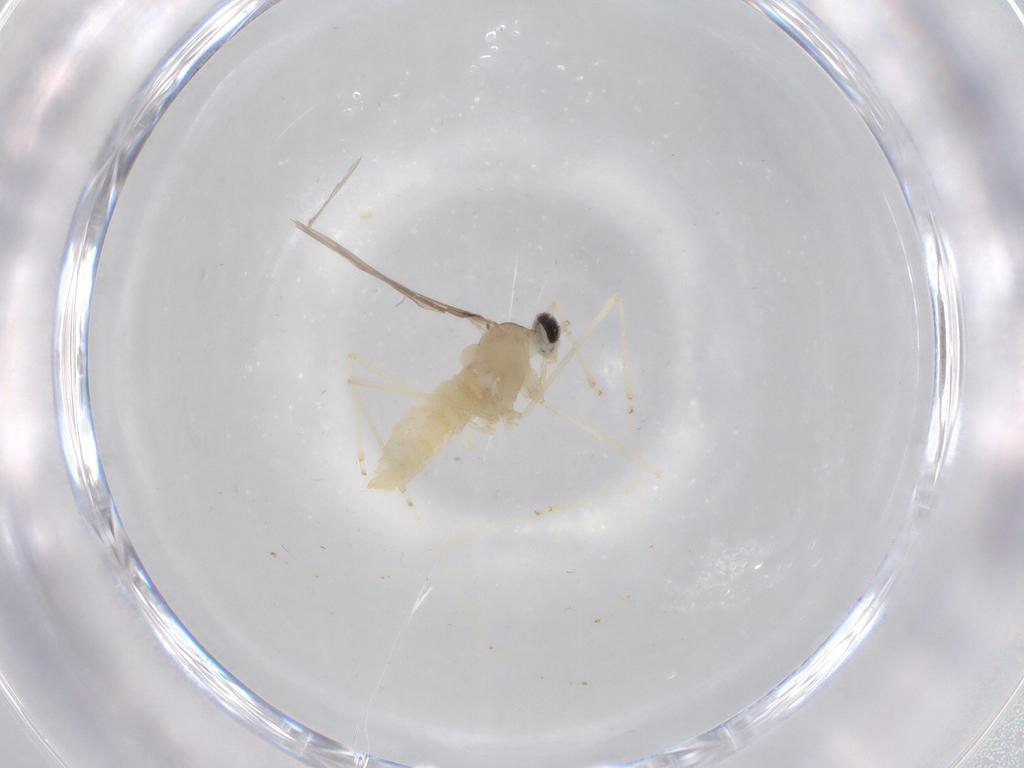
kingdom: Animalia
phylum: Arthropoda
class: Insecta
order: Diptera
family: Cecidomyiidae
